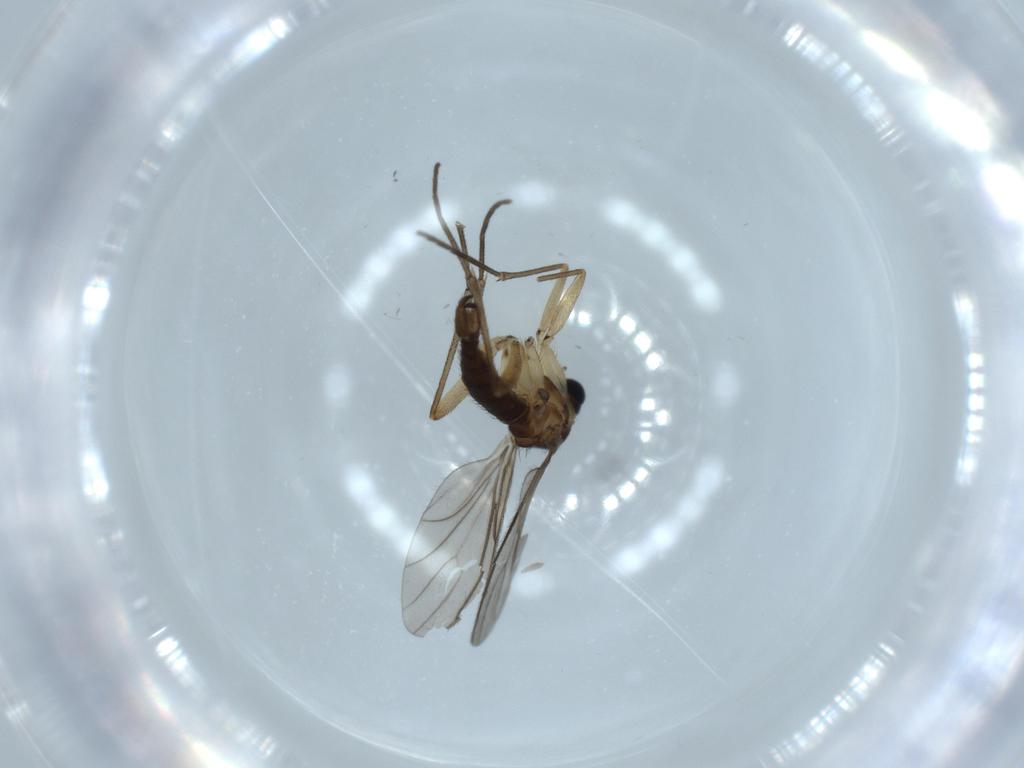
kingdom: Animalia
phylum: Arthropoda
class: Insecta
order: Diptera
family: Sciaridae
